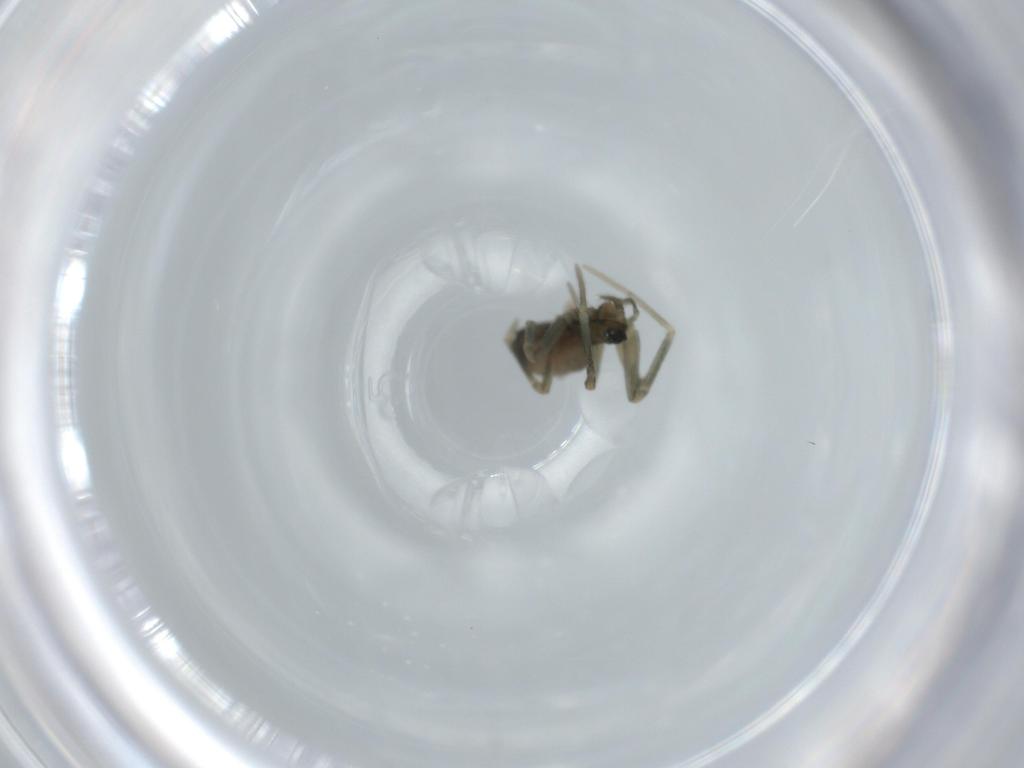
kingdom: Animalia
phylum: Arthropoda
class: Arachnida
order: Araneae
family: Linyphiidae
